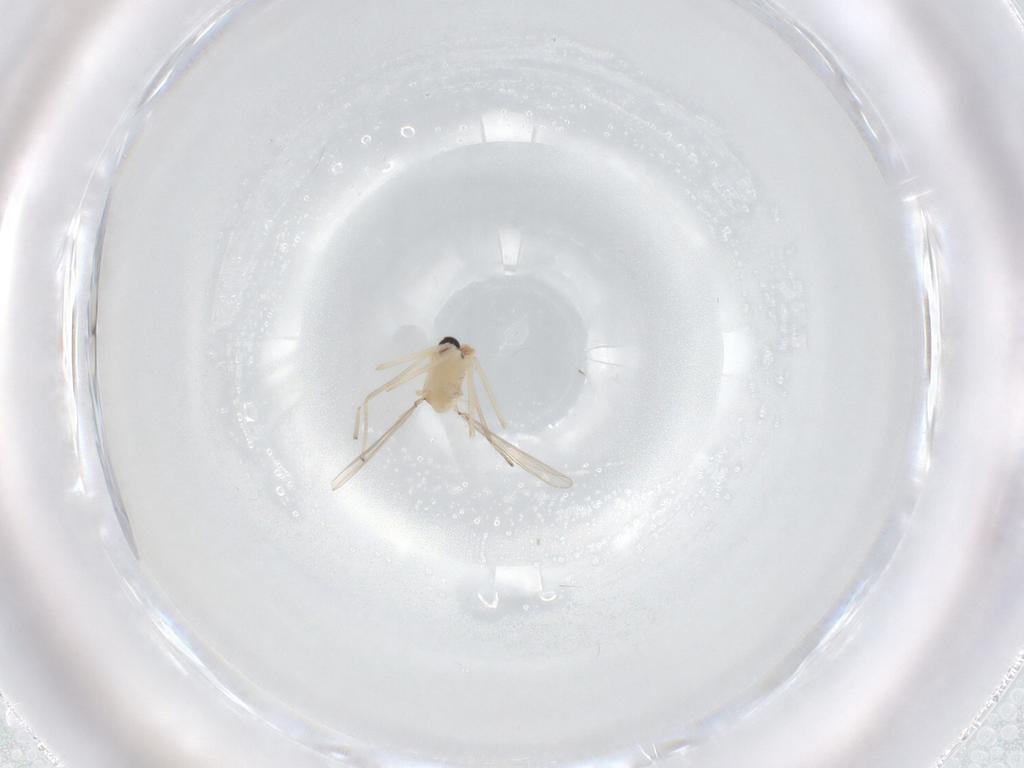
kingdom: Animalia
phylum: Arthropoda
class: Insecta
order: Diptera
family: Chironomidae
